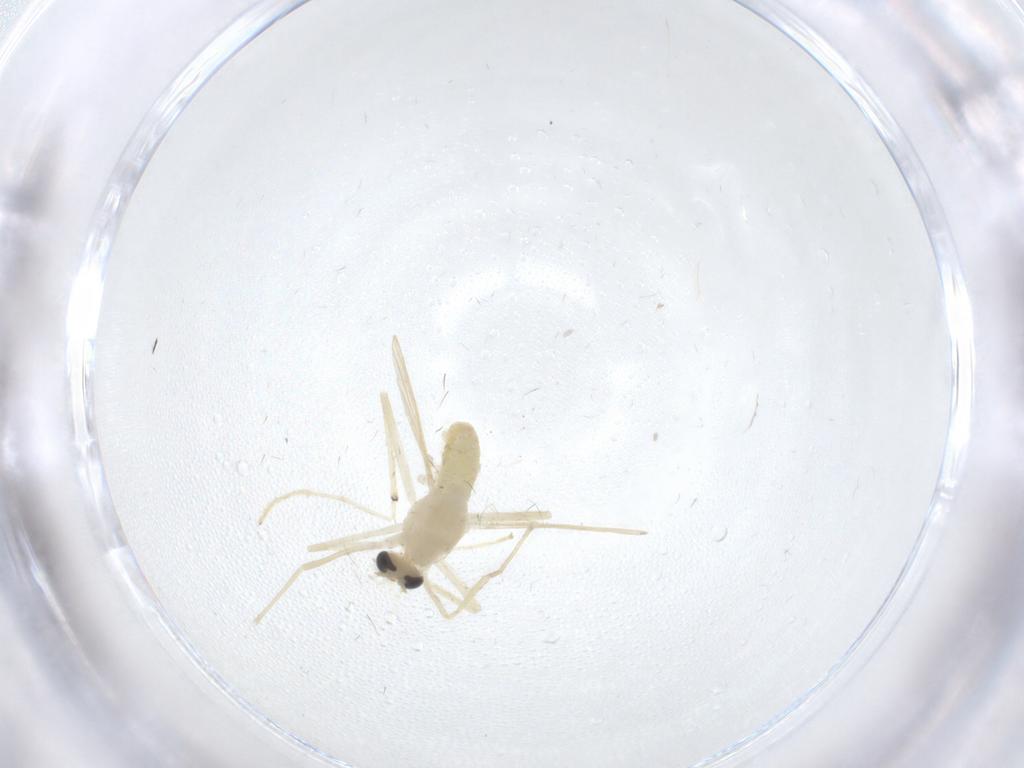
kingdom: Animalia
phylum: Arthropoda
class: Insecta
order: Diptera
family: Chironomidae
